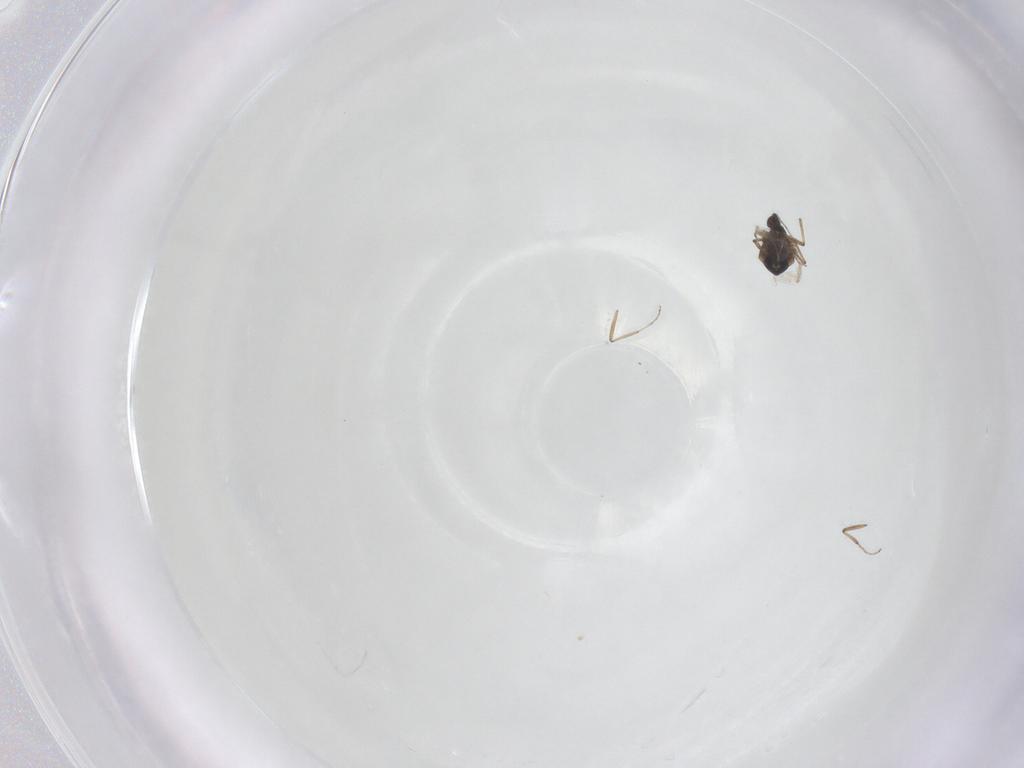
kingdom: Animalia
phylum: Arthropoda
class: Insecta
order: Diptera
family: Ceratopogonidae
